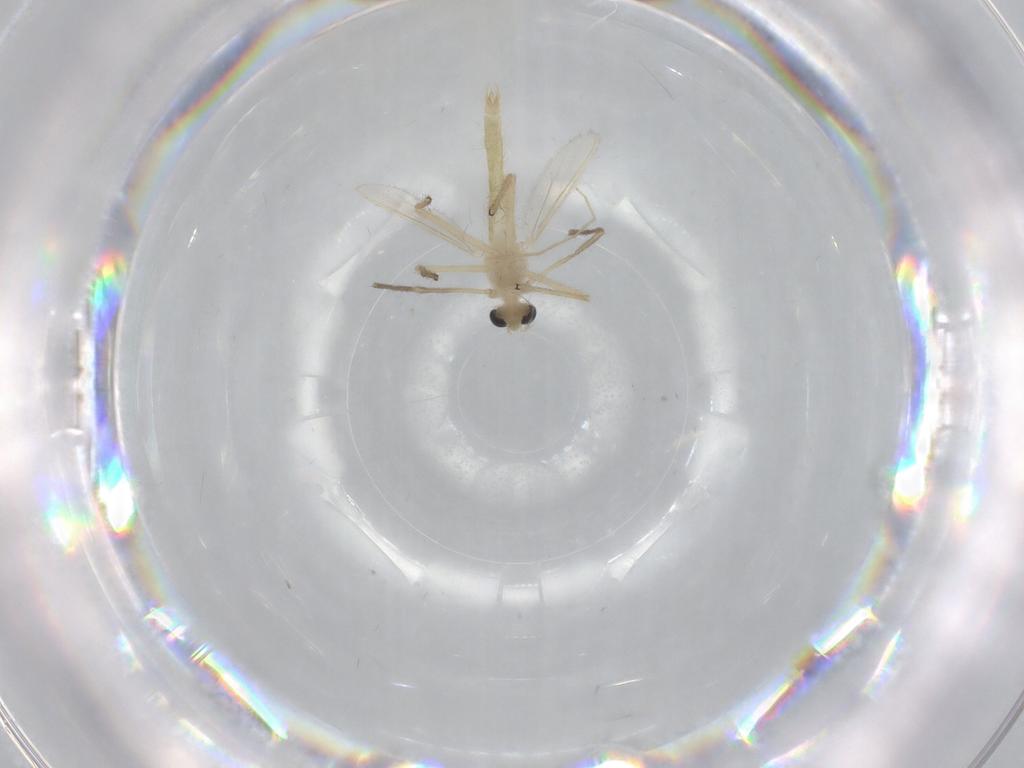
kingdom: Animalia
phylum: Arthropoda
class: Insecta
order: Diptera
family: Chironomidae
